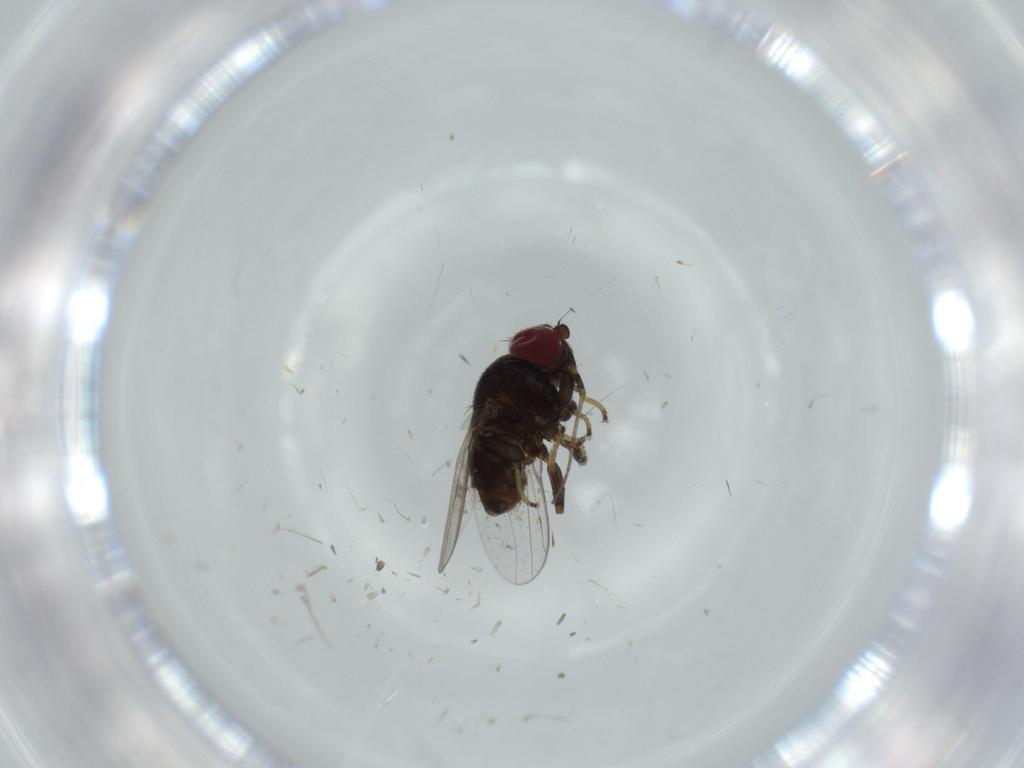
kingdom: Animalia
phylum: Arthropoda
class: Insecta
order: Diptera
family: Chloropidae
